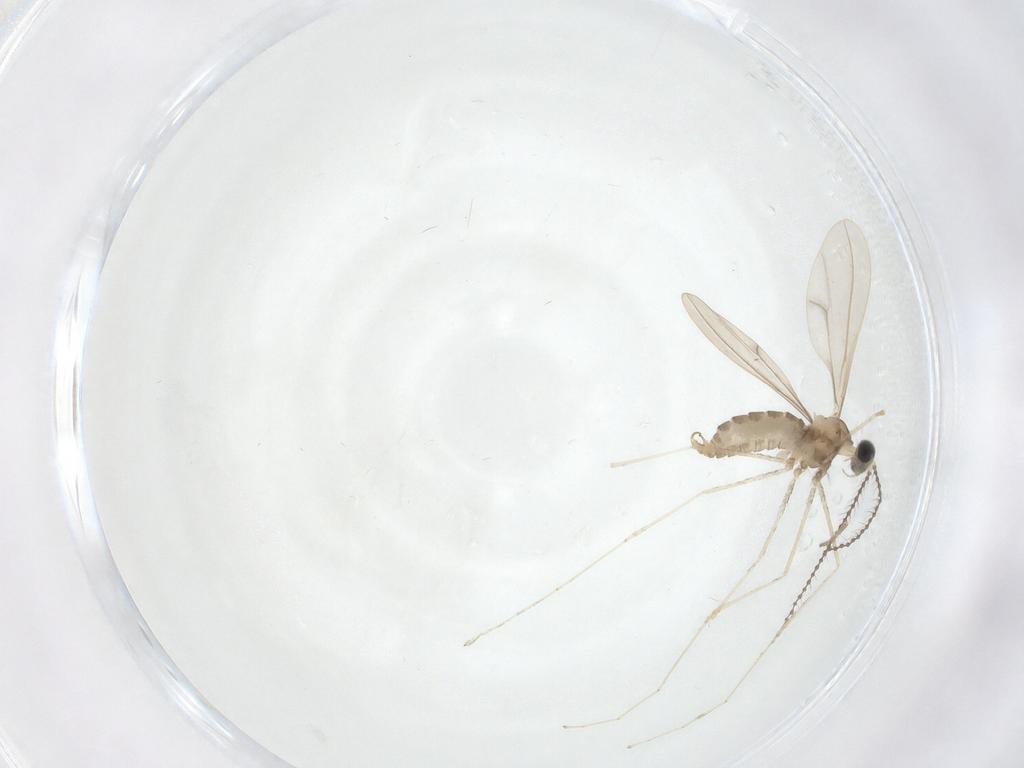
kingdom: Animalia
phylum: Arthropoda
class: Insecta
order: Diptera
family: Cecidomyiidae
